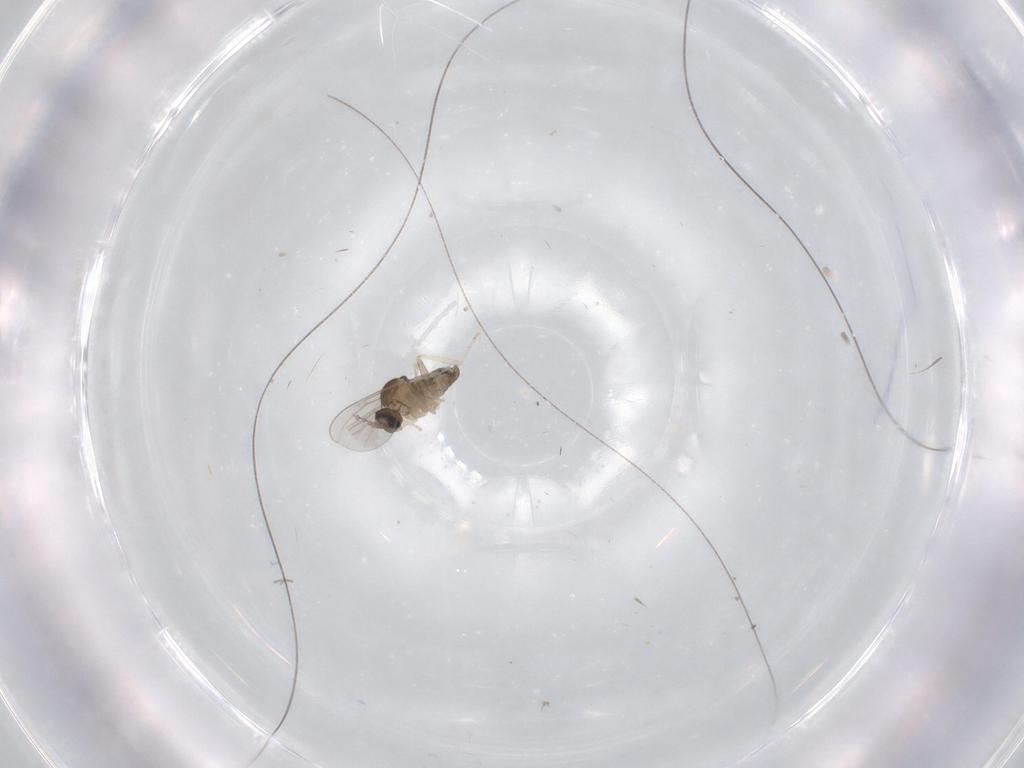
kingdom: Animalia
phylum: Arthropoda
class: Insecta
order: Diptera
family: Cecidomyiidae
